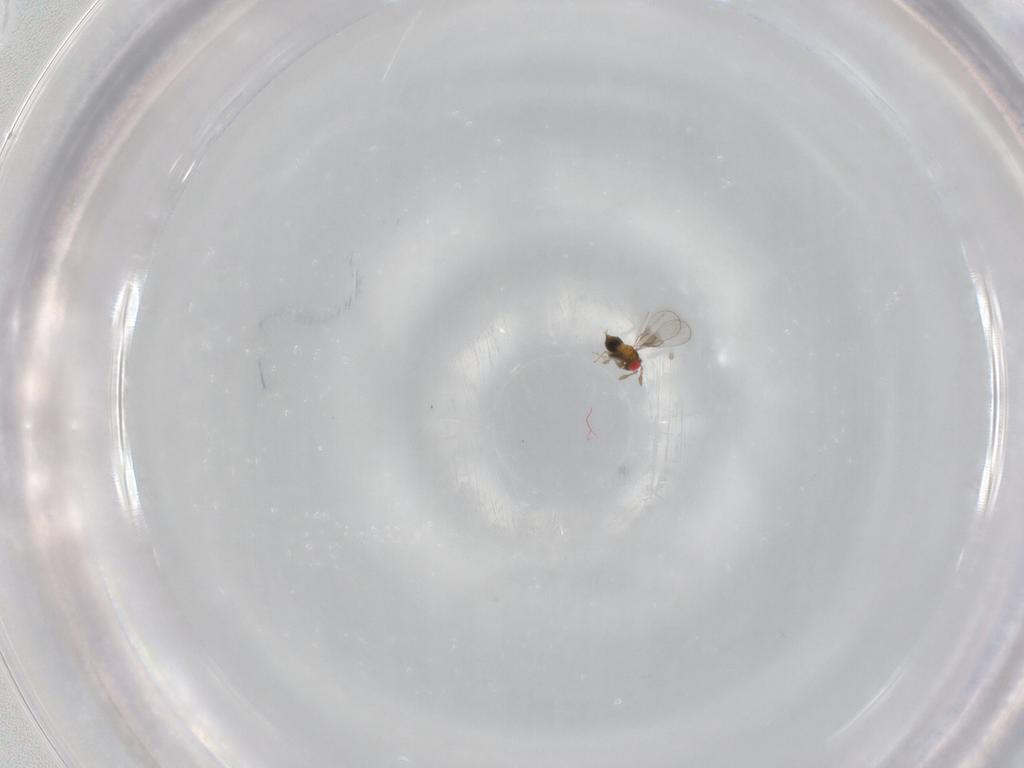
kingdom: Animalia
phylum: Arthropoda
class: Insecta
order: Hymenoptera
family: Trichogrammatidae
